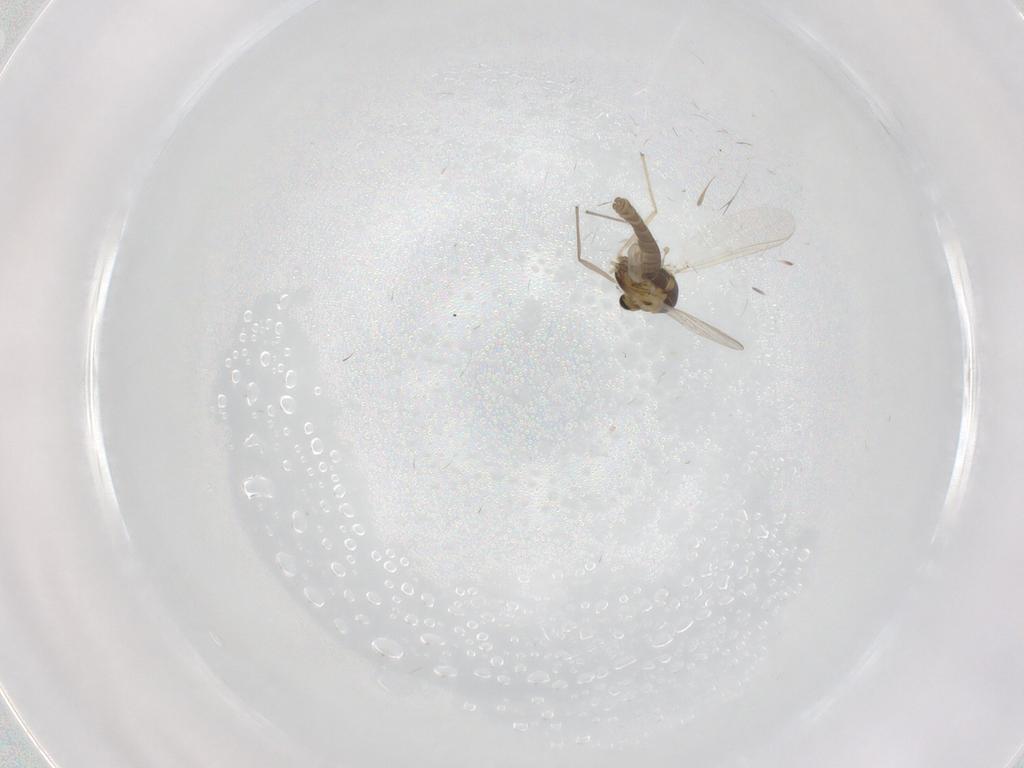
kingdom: Animalia
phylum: Arthropoda
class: Insecta
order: Diptera
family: Chironomidae
